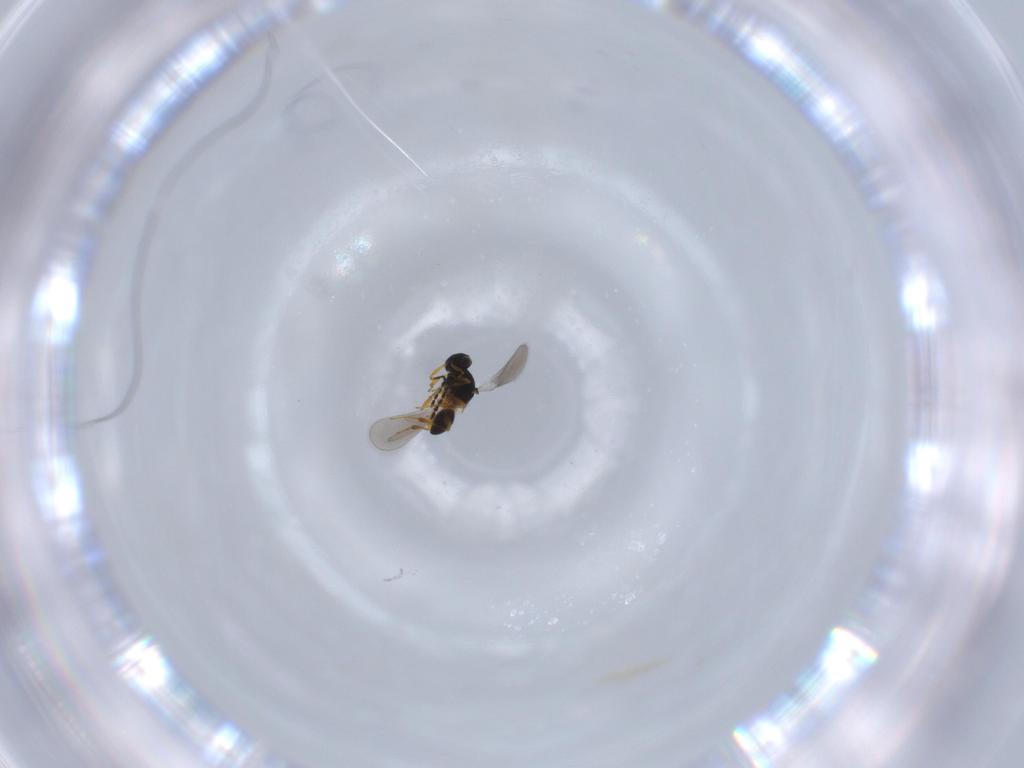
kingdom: Animalia
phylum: Arthropoda
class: Insecta
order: Hymenoptera
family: Platygastridae
